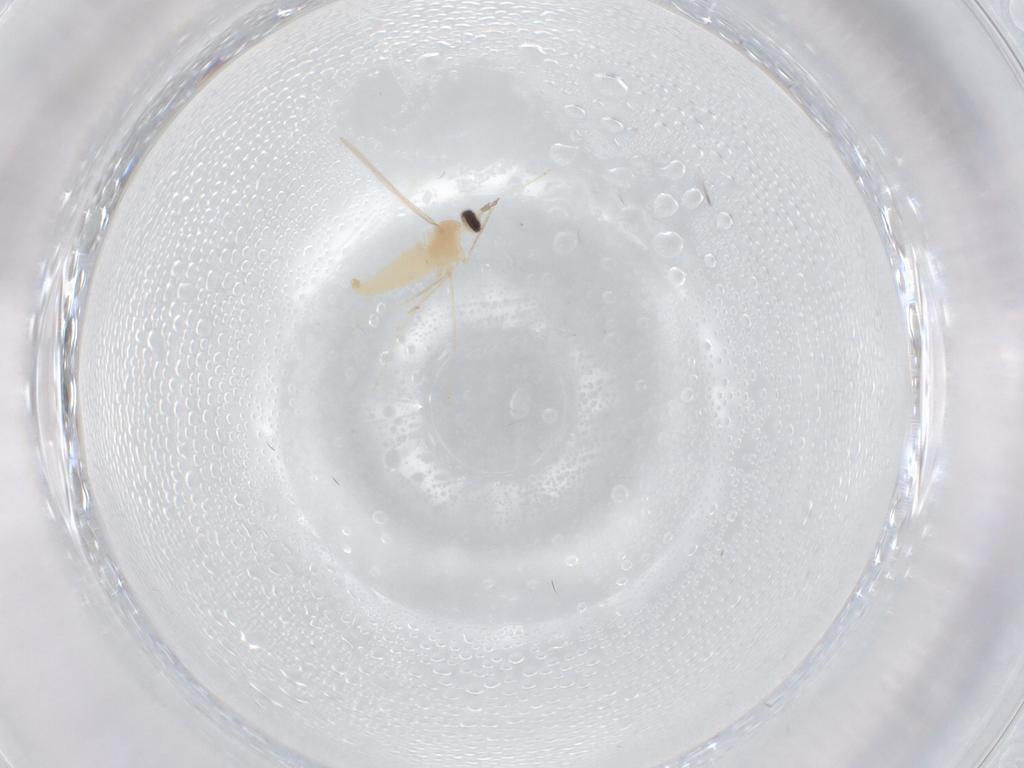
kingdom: Animalia
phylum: Arthropoda
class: Insecta
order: Diptera
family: Cecidomyiidae
